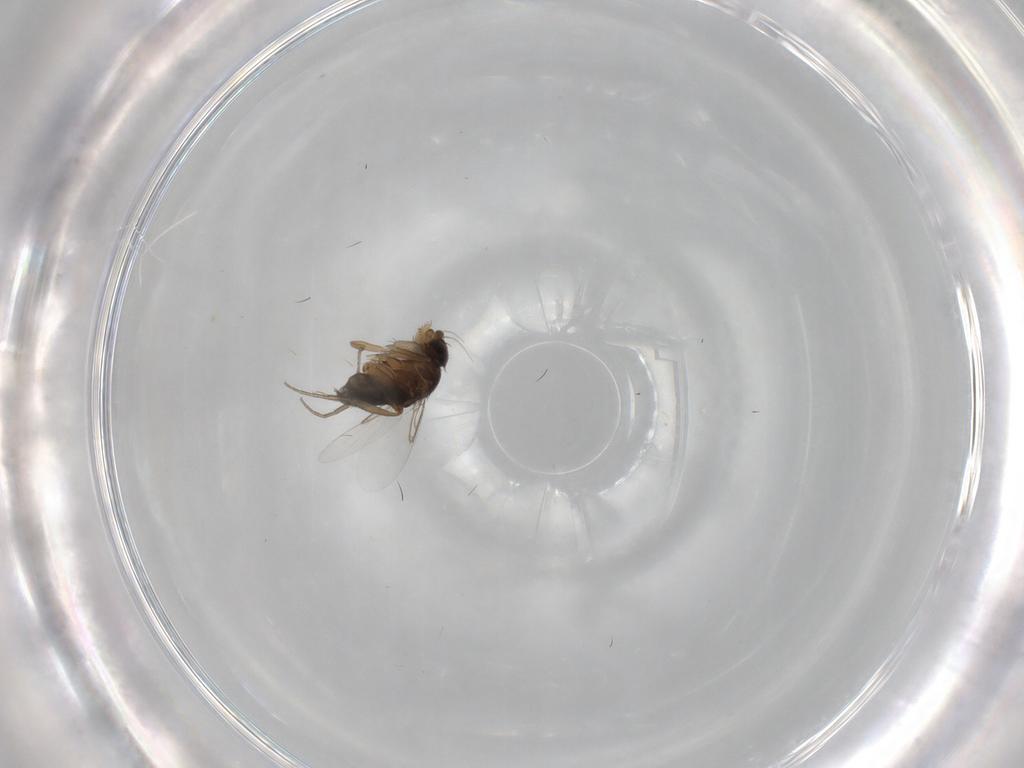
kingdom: Animalia
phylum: Arthropoda
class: Insecta
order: Diptera
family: Phoridae
